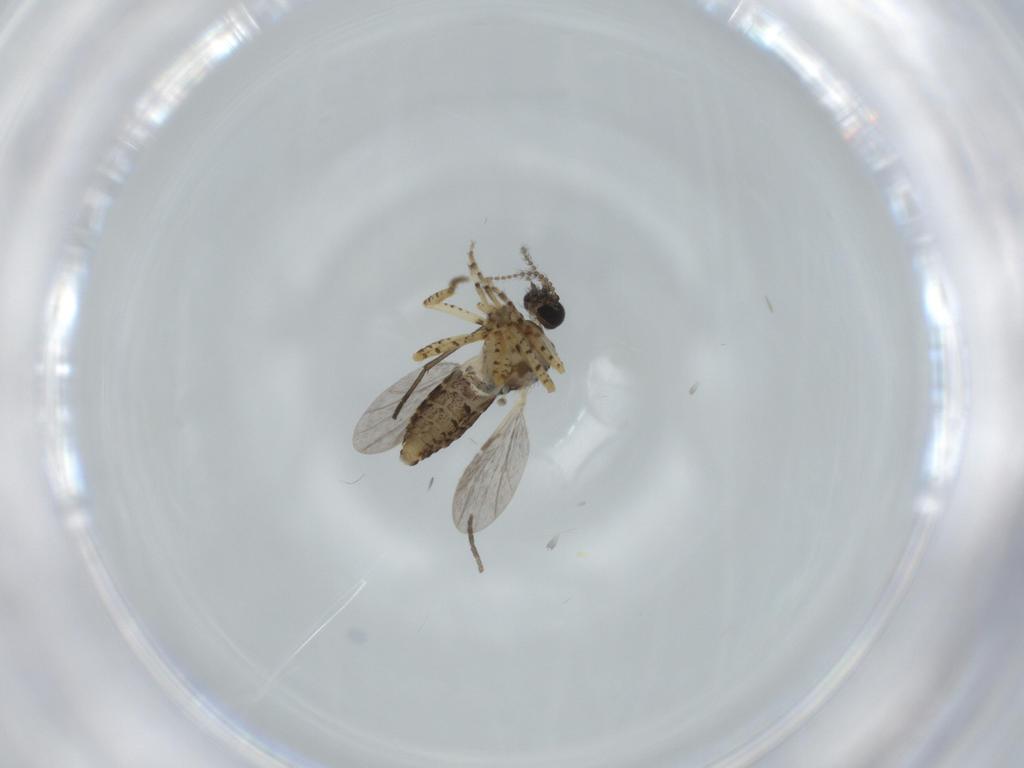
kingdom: Animalia
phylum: Arthropoda
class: Insecta
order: Diptera
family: Ceratopogonidae
